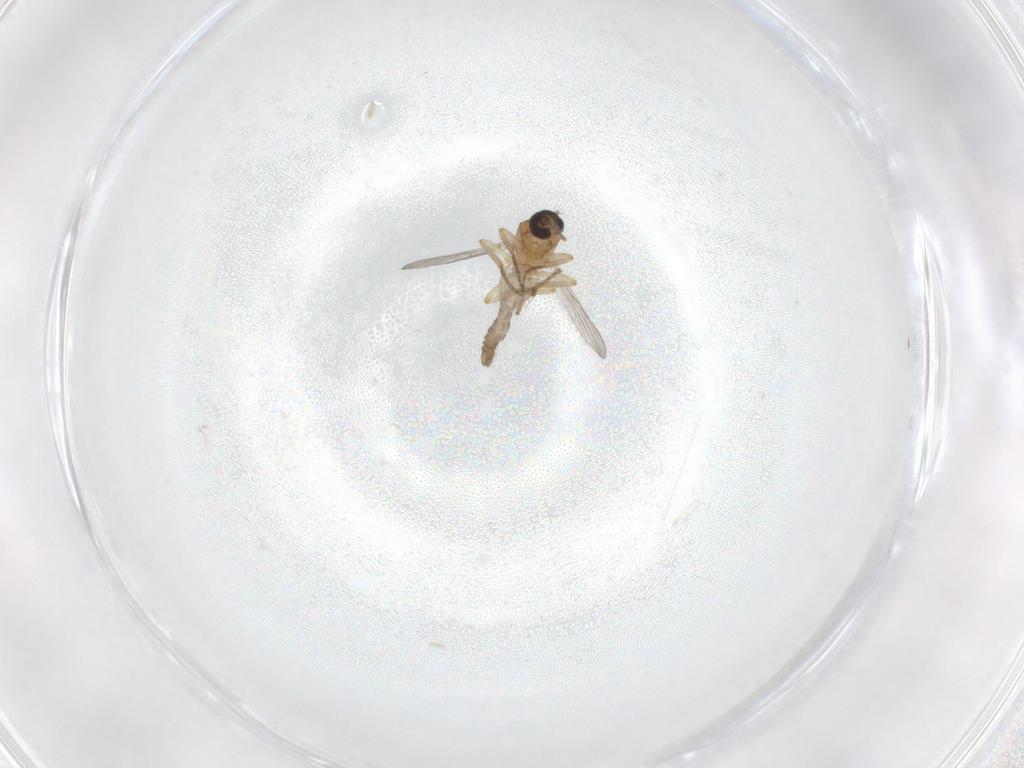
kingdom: Animalia
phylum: Arthropoda
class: Insecta
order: Diptera
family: Ceratopogonidae
